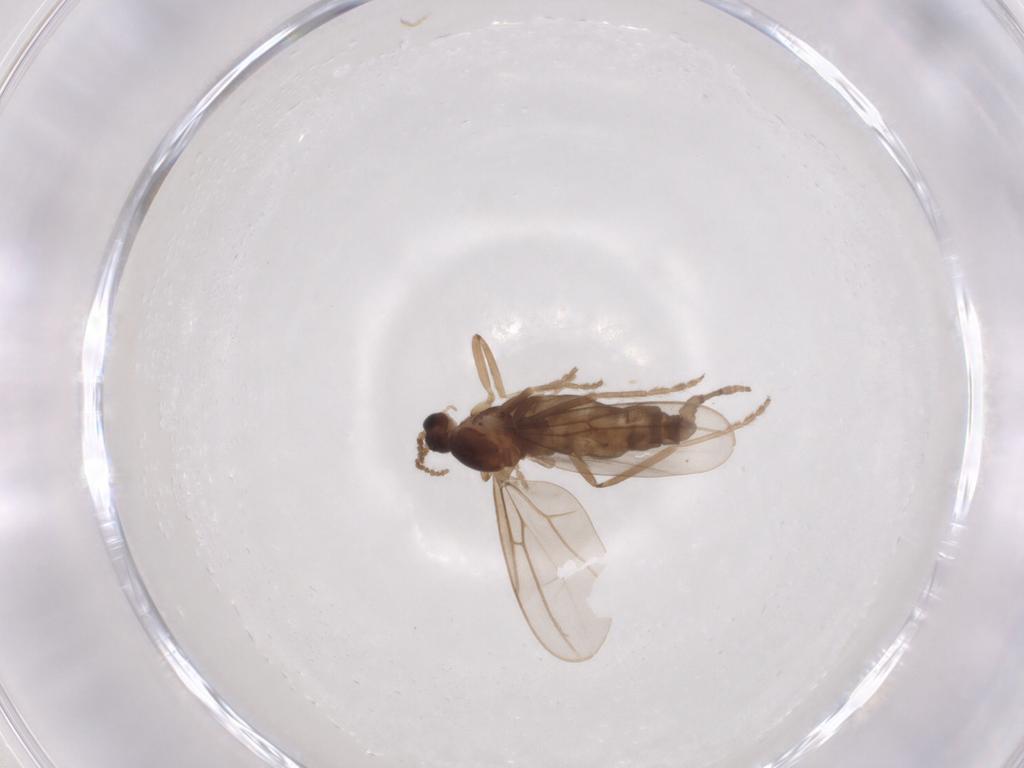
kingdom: Animalia
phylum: Arthropoda
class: Insecta
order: Diptera
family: Cecidomyiidae
